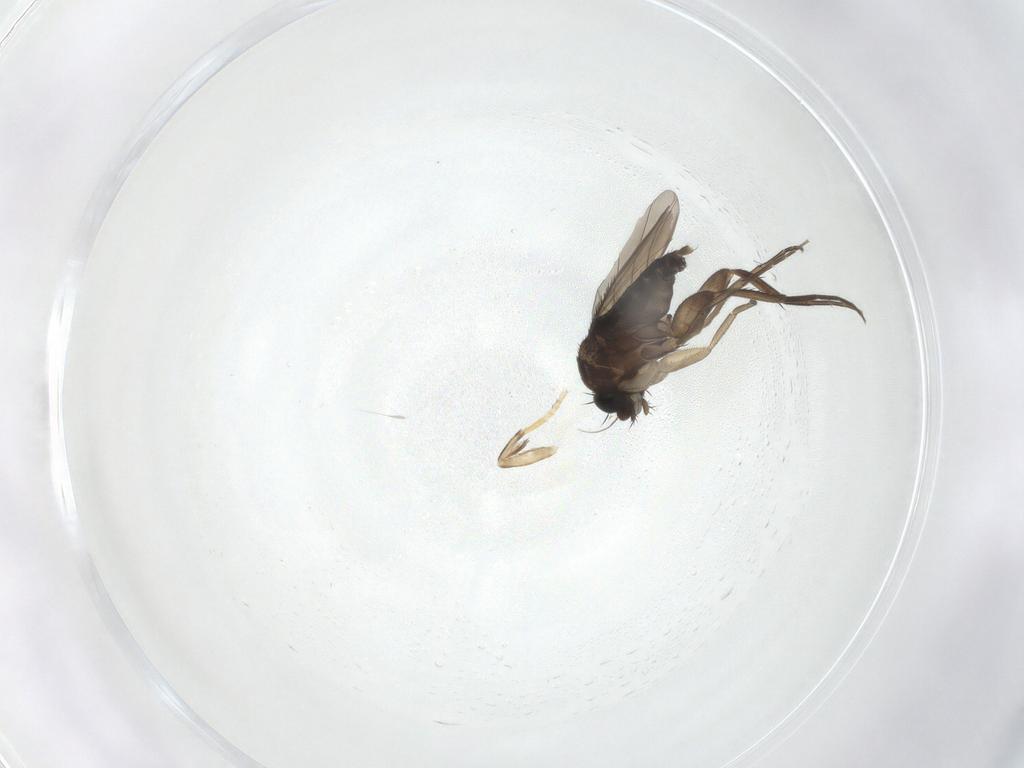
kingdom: Animalia
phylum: Arthropoda
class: Insecta
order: Diptera
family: Phoridae
